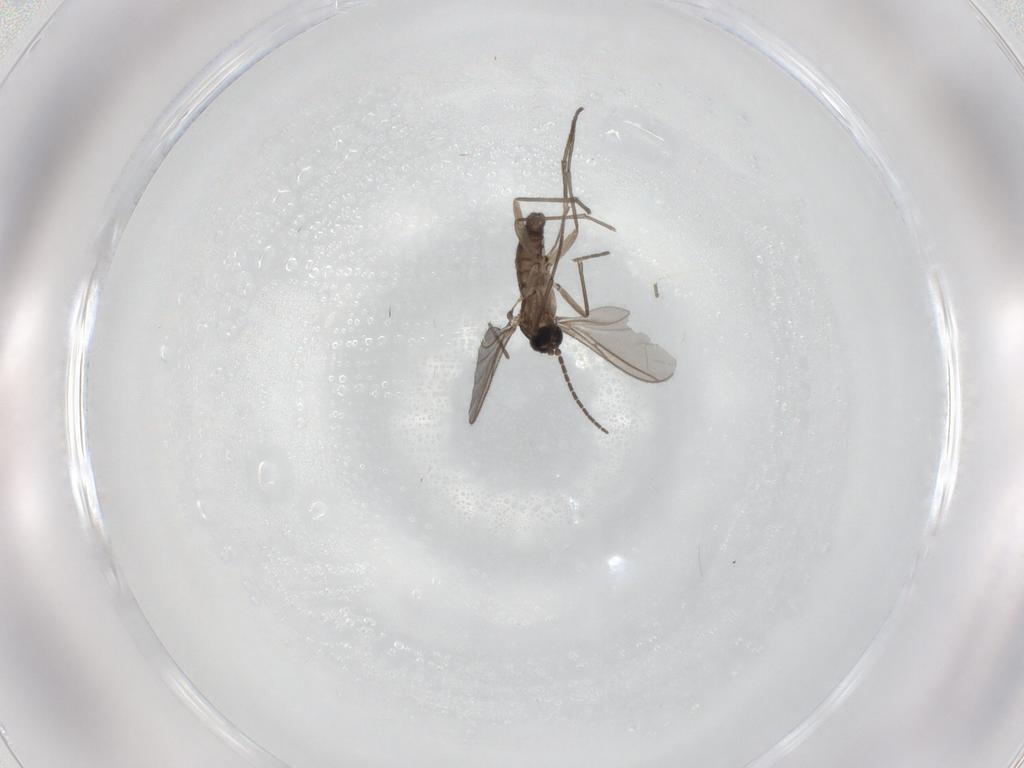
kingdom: Animalia
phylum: Arthropoda
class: Insecta
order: Diptera
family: Sciaridae
